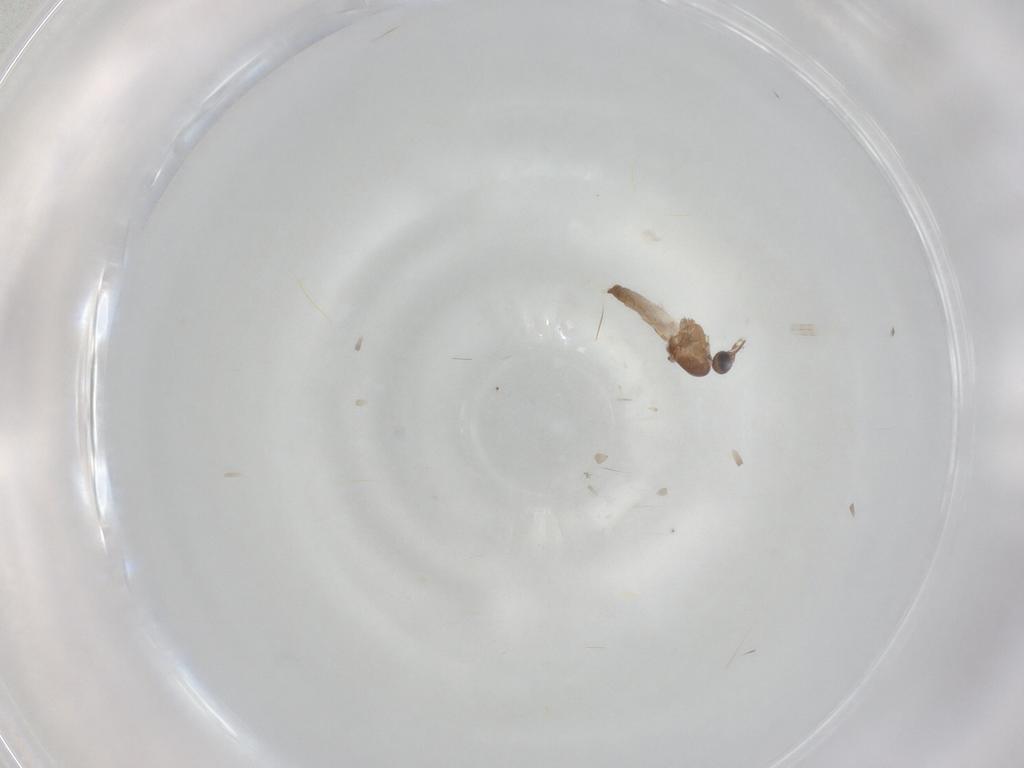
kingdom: Animalia
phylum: Arthropoda
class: Insecta
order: Diptera
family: Ceratopogonidae
